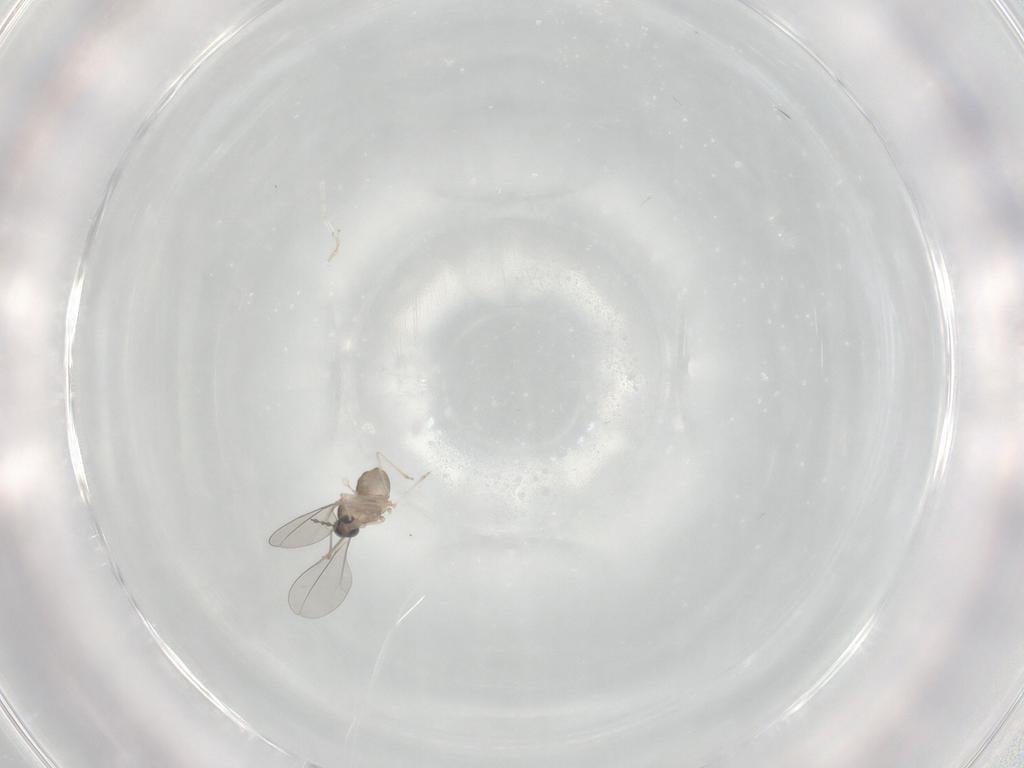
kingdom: Animalia
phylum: Arthropoda
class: Insecta
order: Diptera
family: Cecidomyiidae
